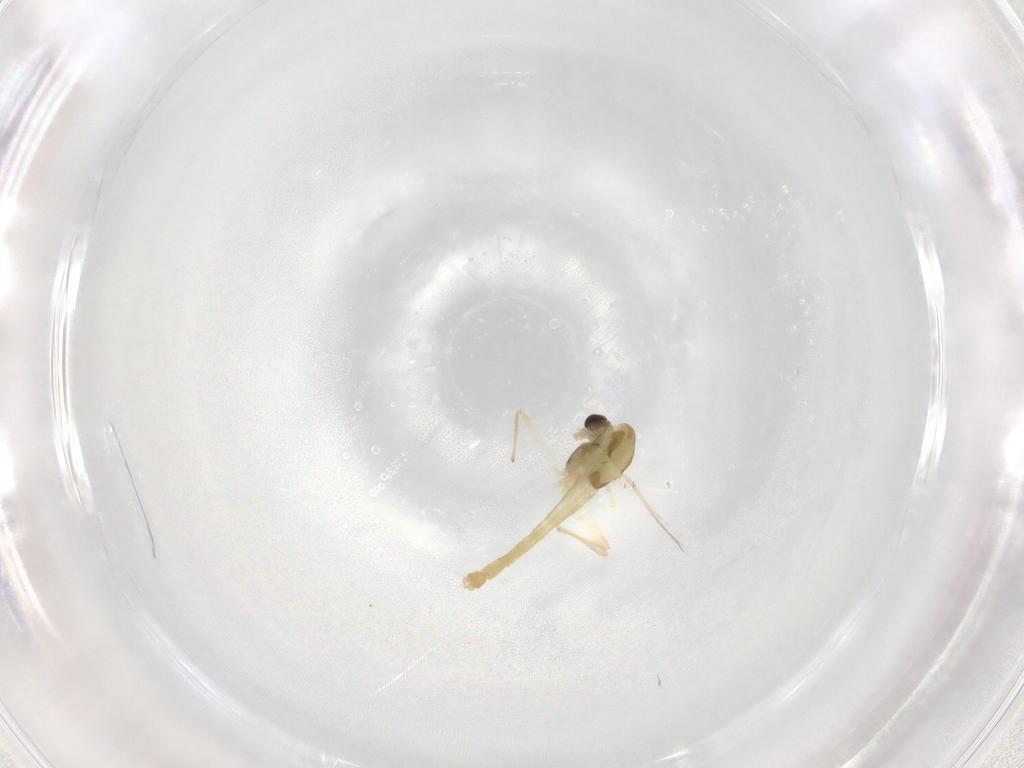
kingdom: Animalia
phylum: Arthropoda
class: Insecta
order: Diptera
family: Chironomidae
